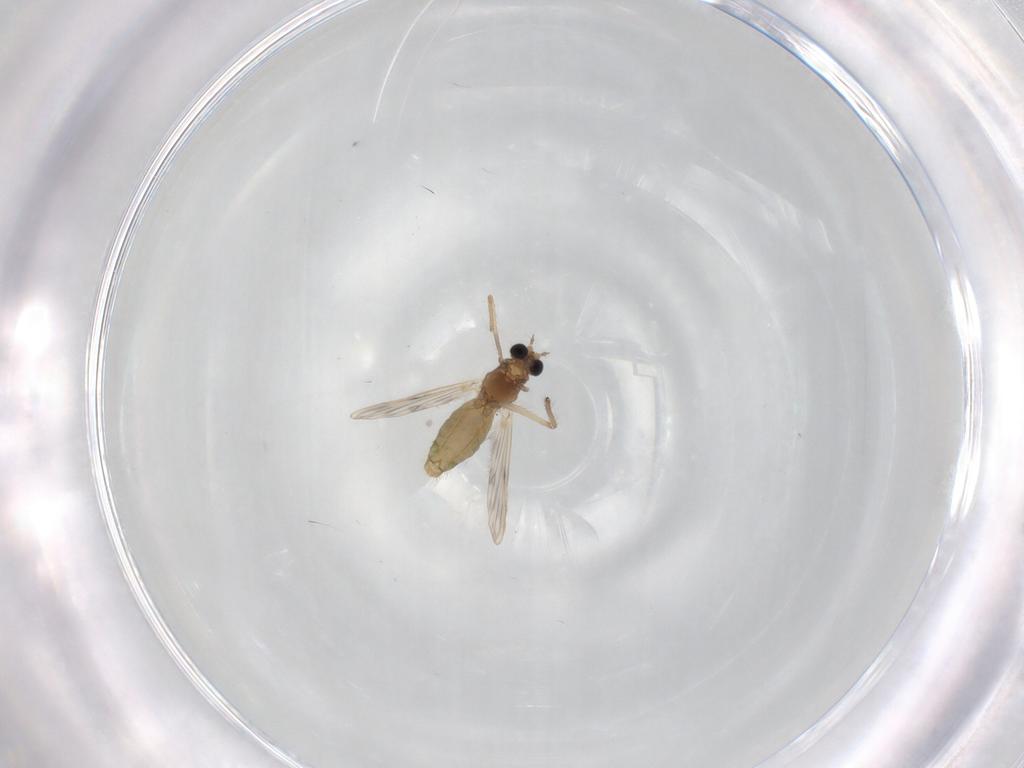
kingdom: Animalia
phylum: Arthropoda
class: Insecta
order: Diptera
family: Chironomidae
